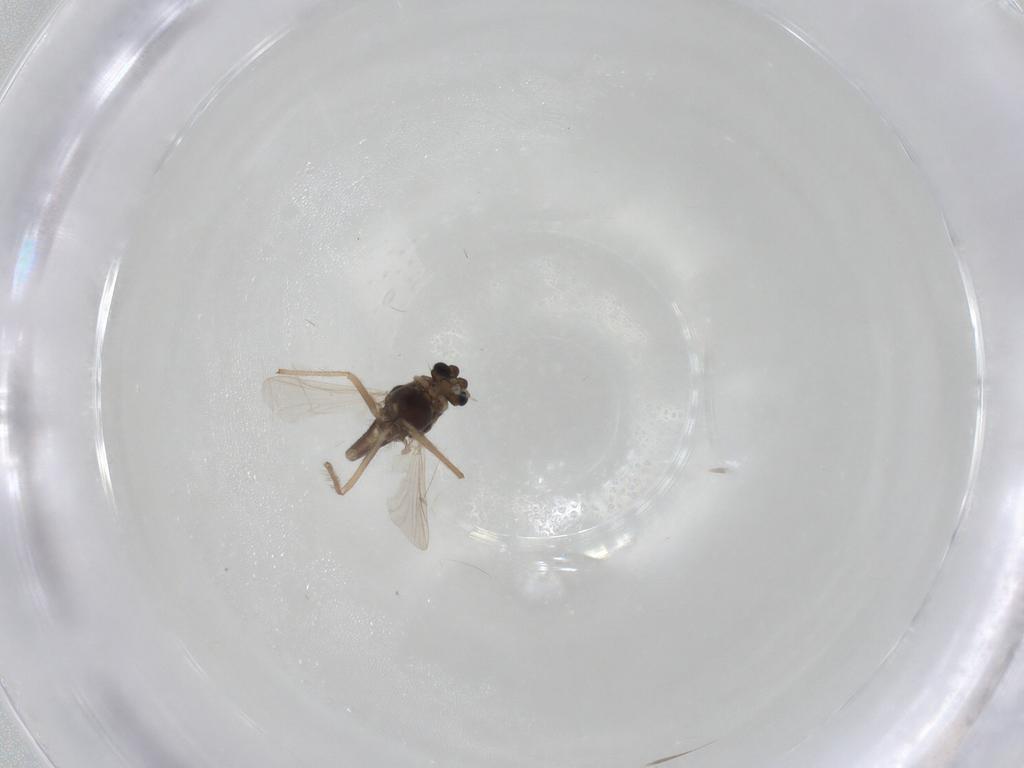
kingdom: Animalia
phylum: Arthropoda
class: Insecta
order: Diptera
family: Chironomidae
